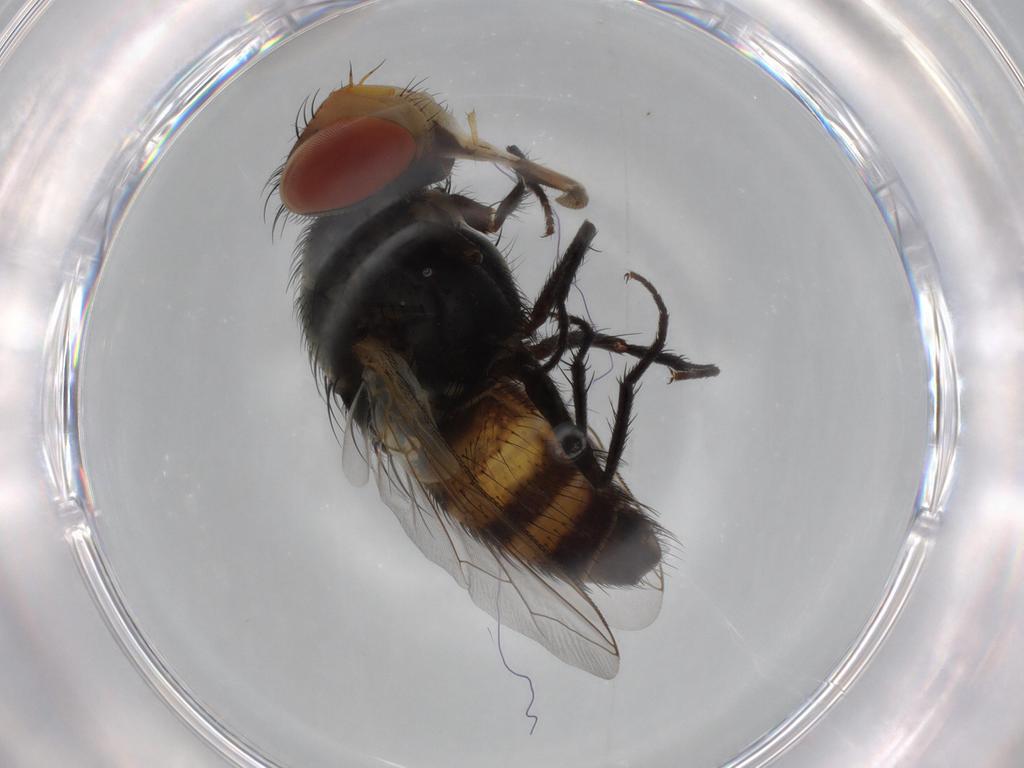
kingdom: Animalia
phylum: Arthropoda
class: Insecta
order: Diptera
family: Sarcophagidae
